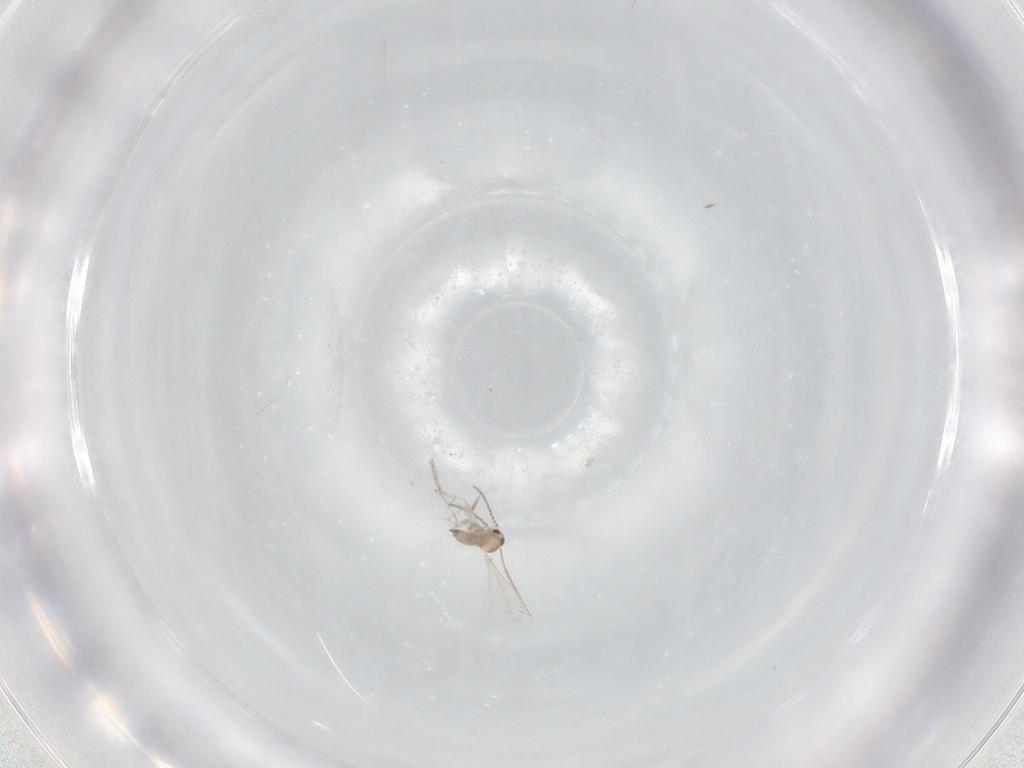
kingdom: Animalia
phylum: Arthropoda
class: Insecta
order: Diptera
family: Cecidomyiidae
